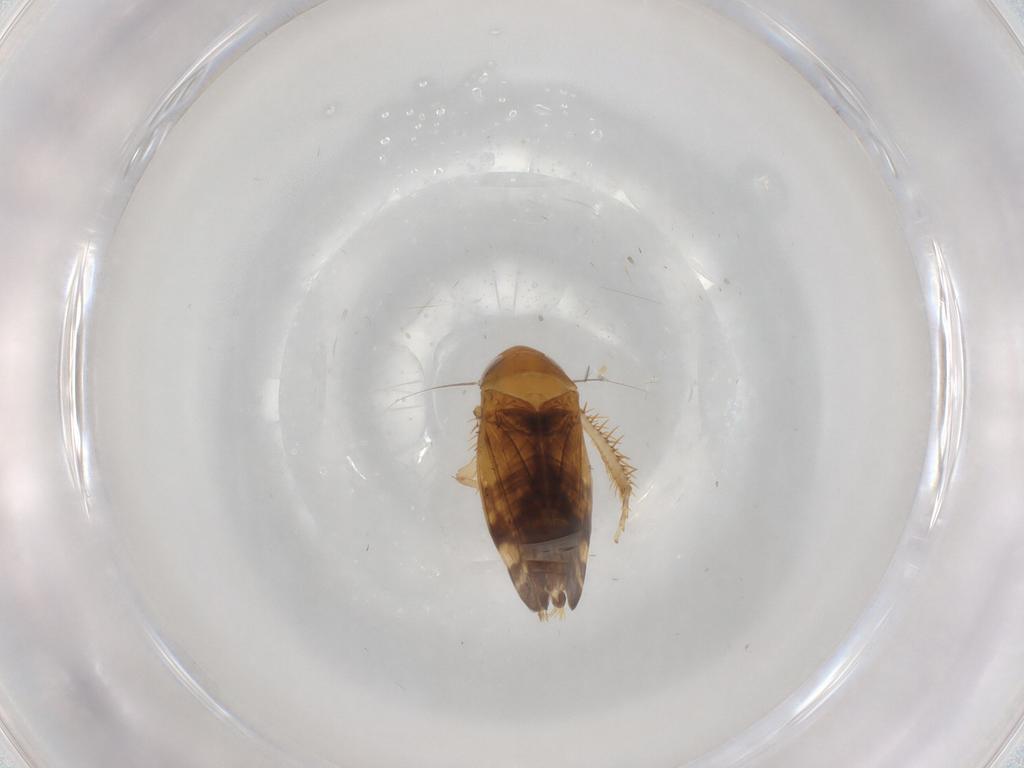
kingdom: Animalia
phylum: Arthropoda
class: Insecta
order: Hemiptera
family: Cicadellidae
